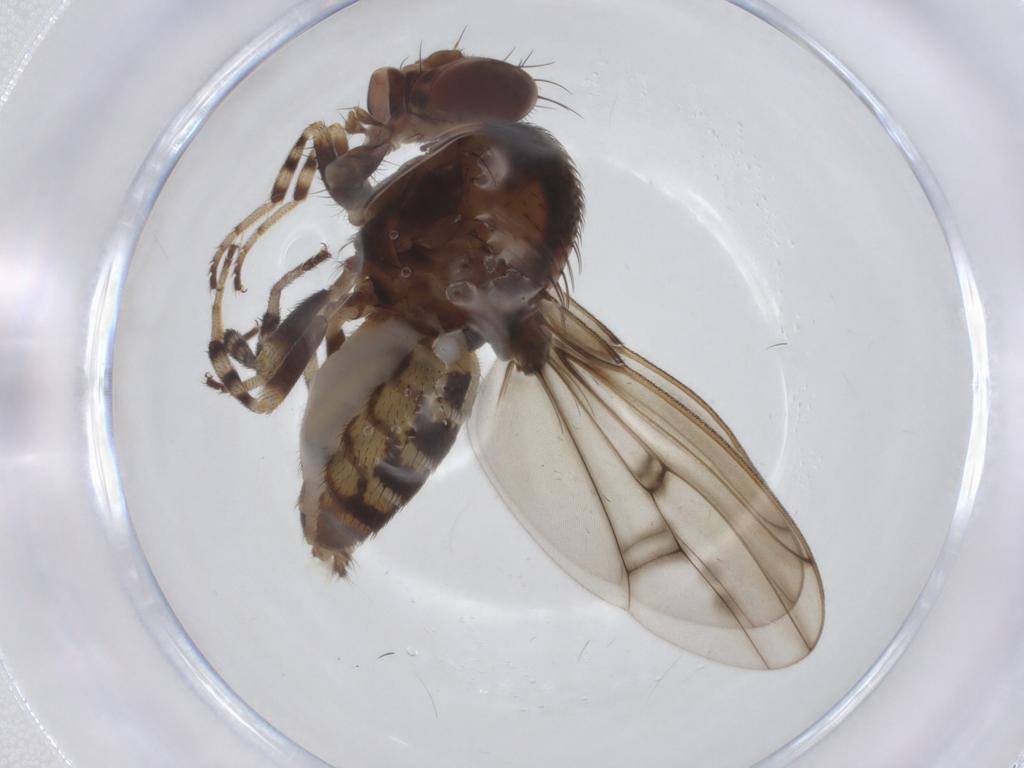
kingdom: Animalia
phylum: Arthropoda
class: Insecta
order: Diptera
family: Drosophilidae
